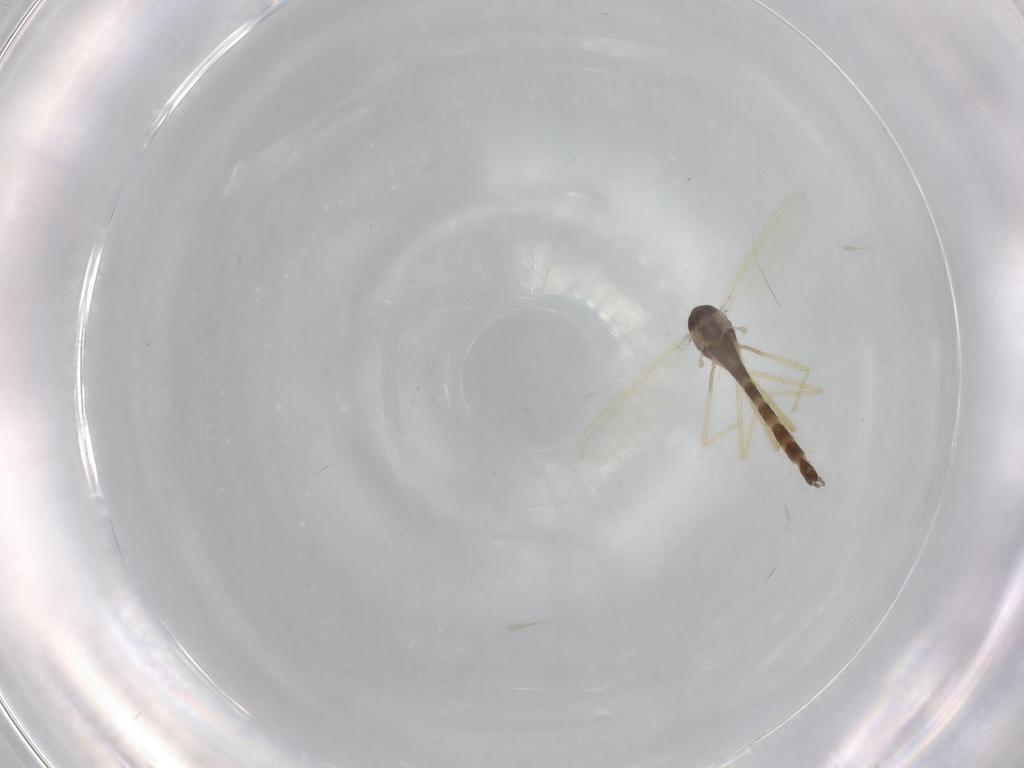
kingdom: Animalia
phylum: Arthropoda
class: Insecta
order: Diptera
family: Chironomidae
